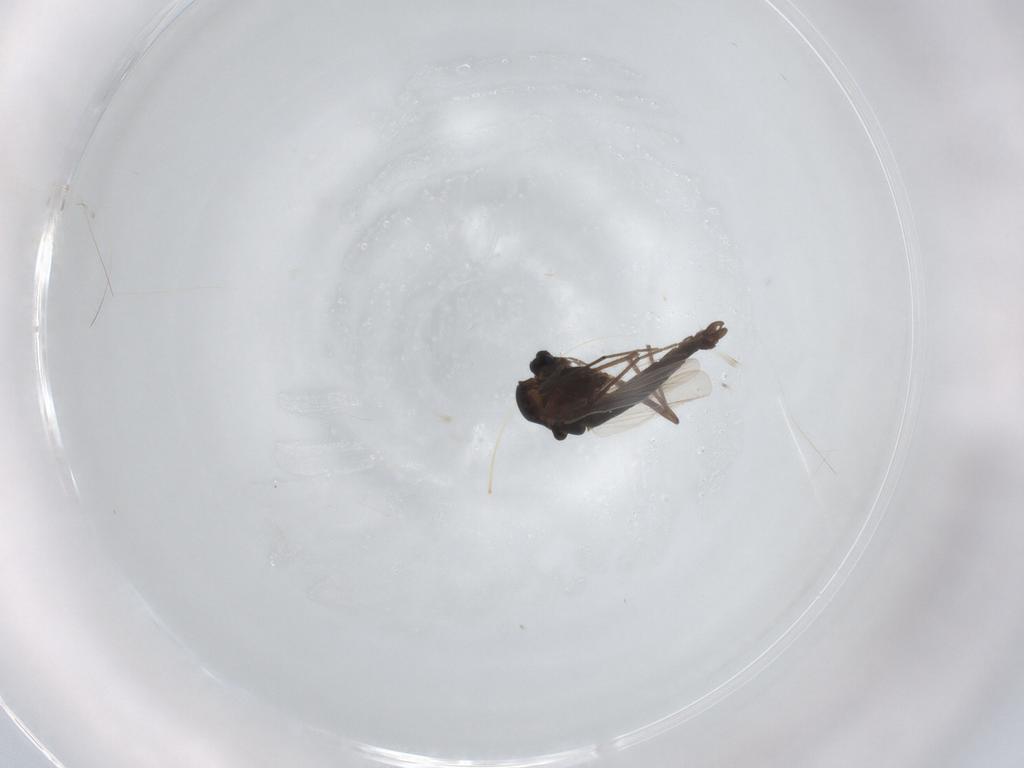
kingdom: Animalia
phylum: Arthropoda
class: Insecta
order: Diptera
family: Chironomidae
